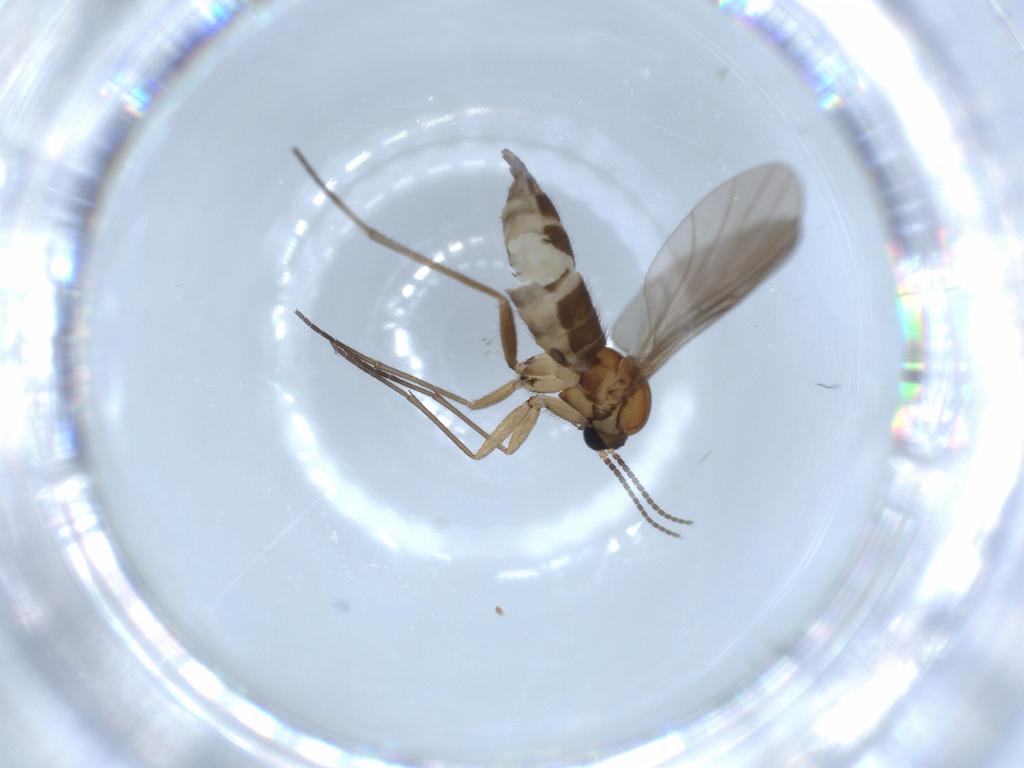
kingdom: Animalia
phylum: Arthropoda
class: Insecta
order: Diptera
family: Sciaridae
